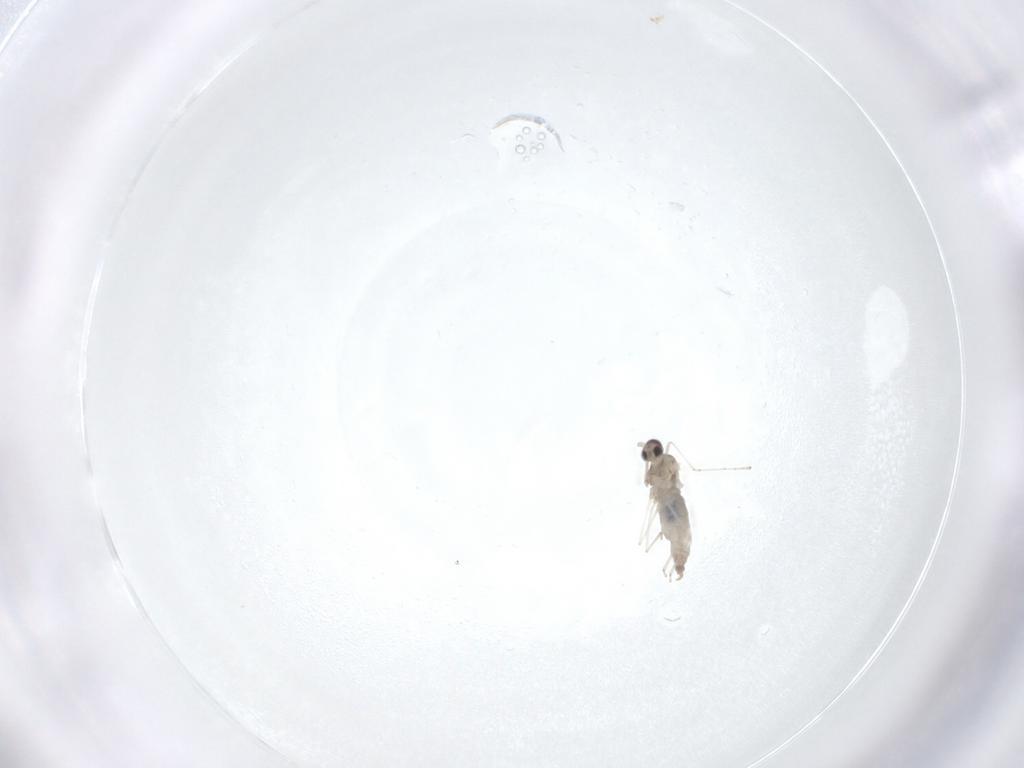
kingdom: Animalia
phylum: Arthropoda
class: Insecta
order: Diptera
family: Cecidomyiidae
